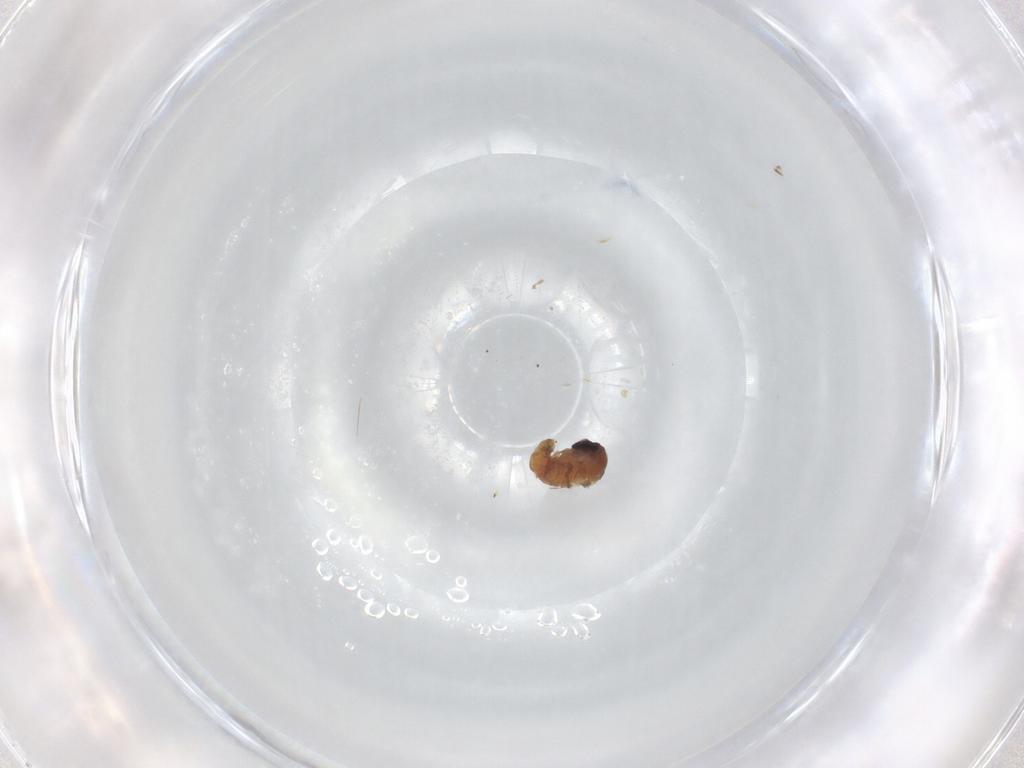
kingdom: Animalia
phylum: Arthropoda
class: Insecta
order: Diptera
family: Psychodidae
